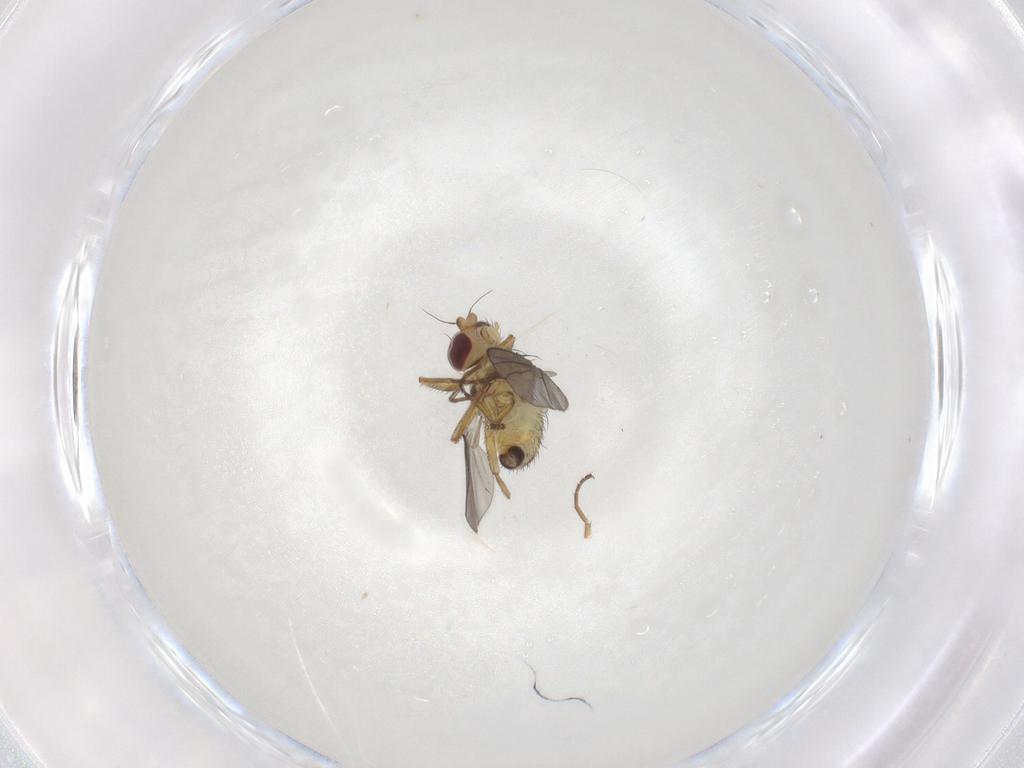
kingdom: Animalia
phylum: Arthropoda
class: Insecta
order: Diptera
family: Agromyzidae
